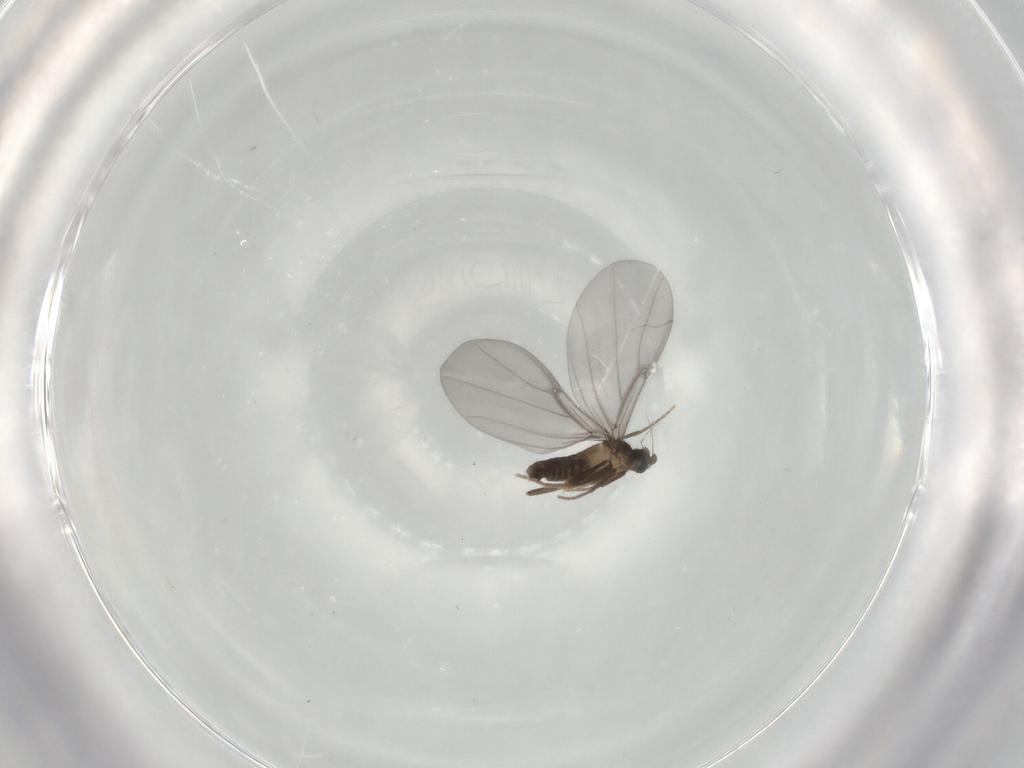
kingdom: Animalia
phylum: Arthropoda
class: Insecta
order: Diptera
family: Phoridae
